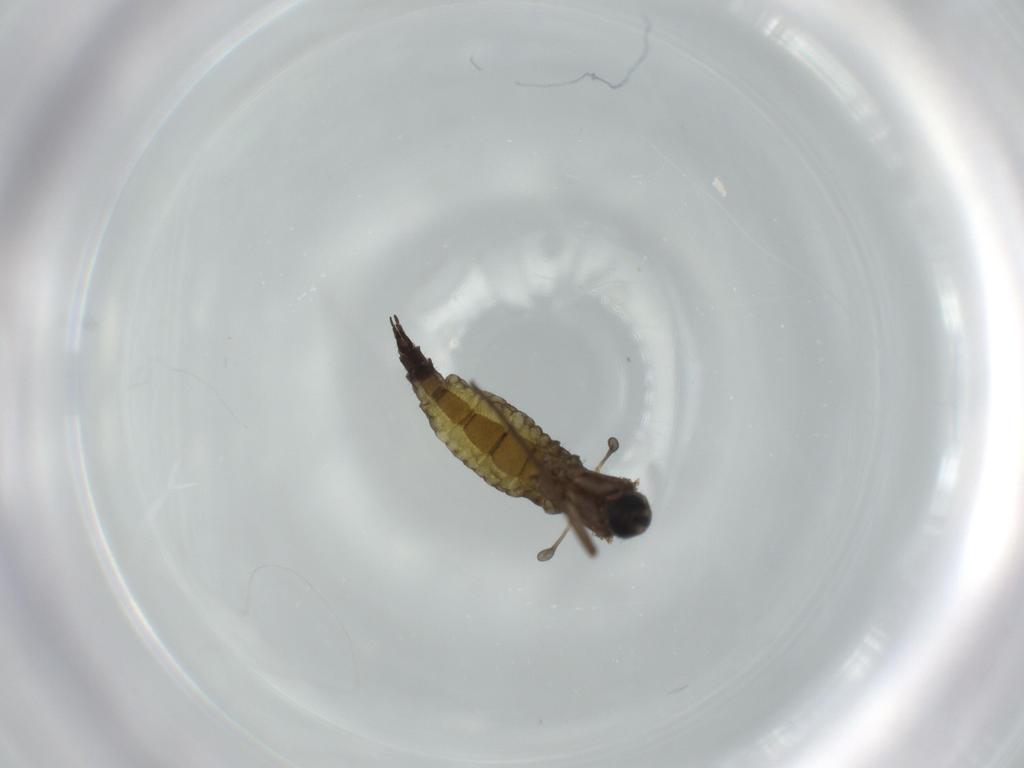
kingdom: Animalia
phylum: Arthropoda
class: Insecta
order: Diptera
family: Sciaridae
